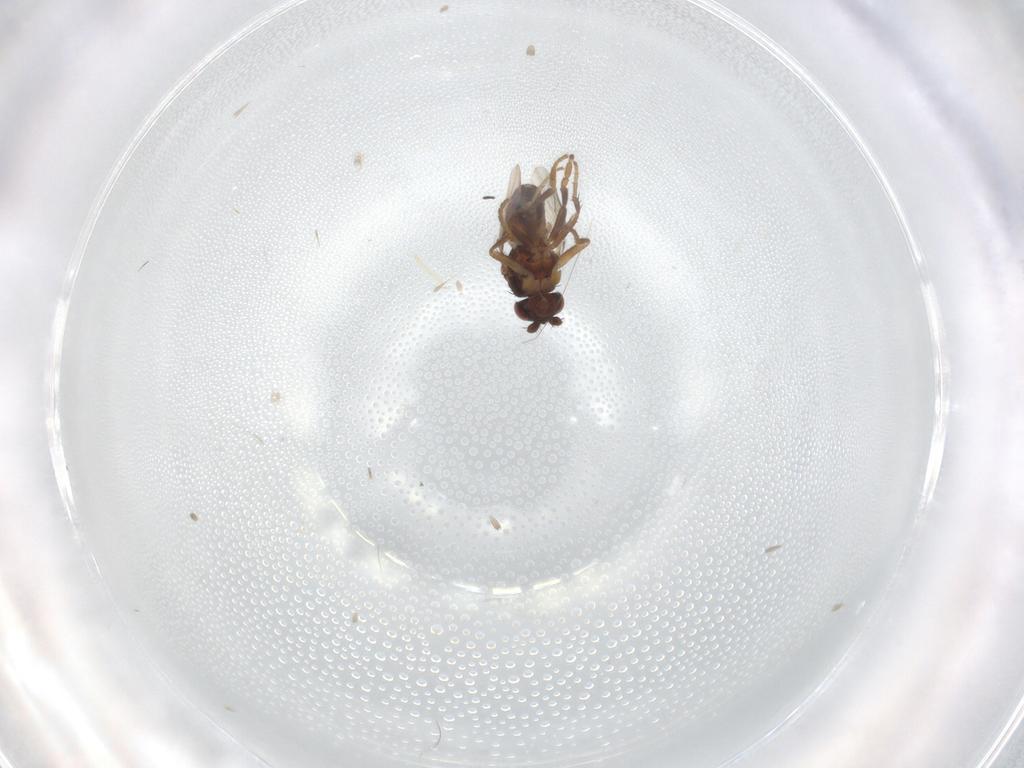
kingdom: Animalia
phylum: Arthropoda
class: Insecta
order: Diptera
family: Sphaeroceridae
